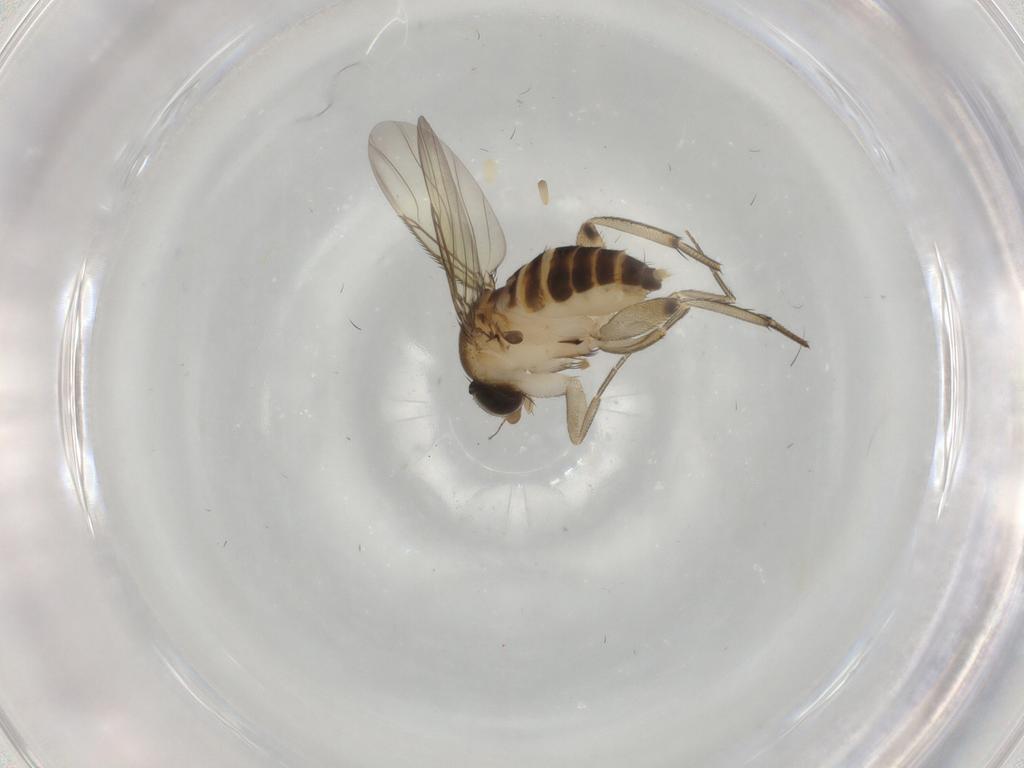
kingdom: Animalia
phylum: Arthropoda
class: Insecta
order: Diptera
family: Phoridae
